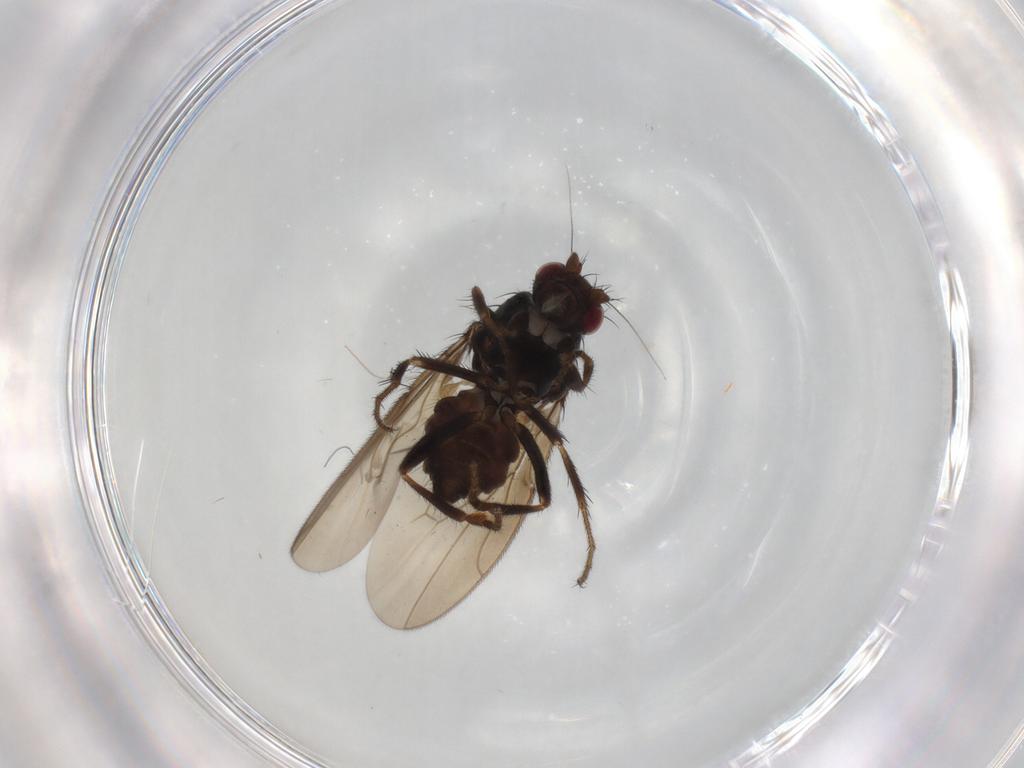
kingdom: Animalia
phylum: Arthropoda
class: Insecta
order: Diptera
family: Sphaeroceridae
